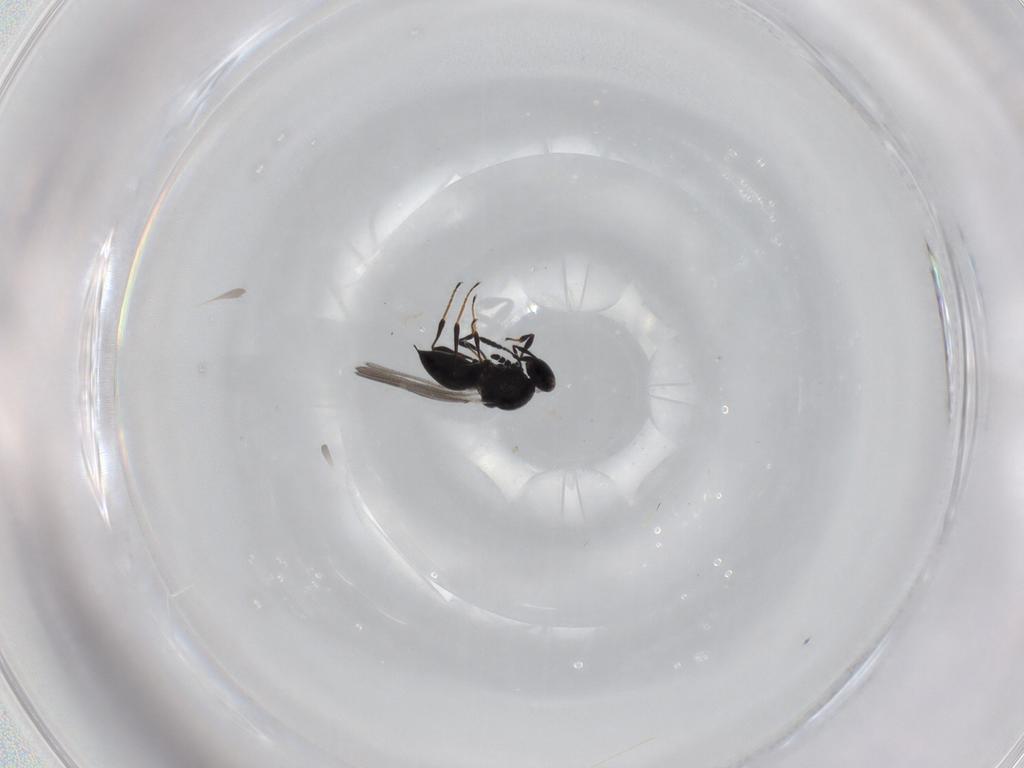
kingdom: Animalia
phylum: Arthropoda
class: Insecta
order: Hymenoptera
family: Platygastridae
